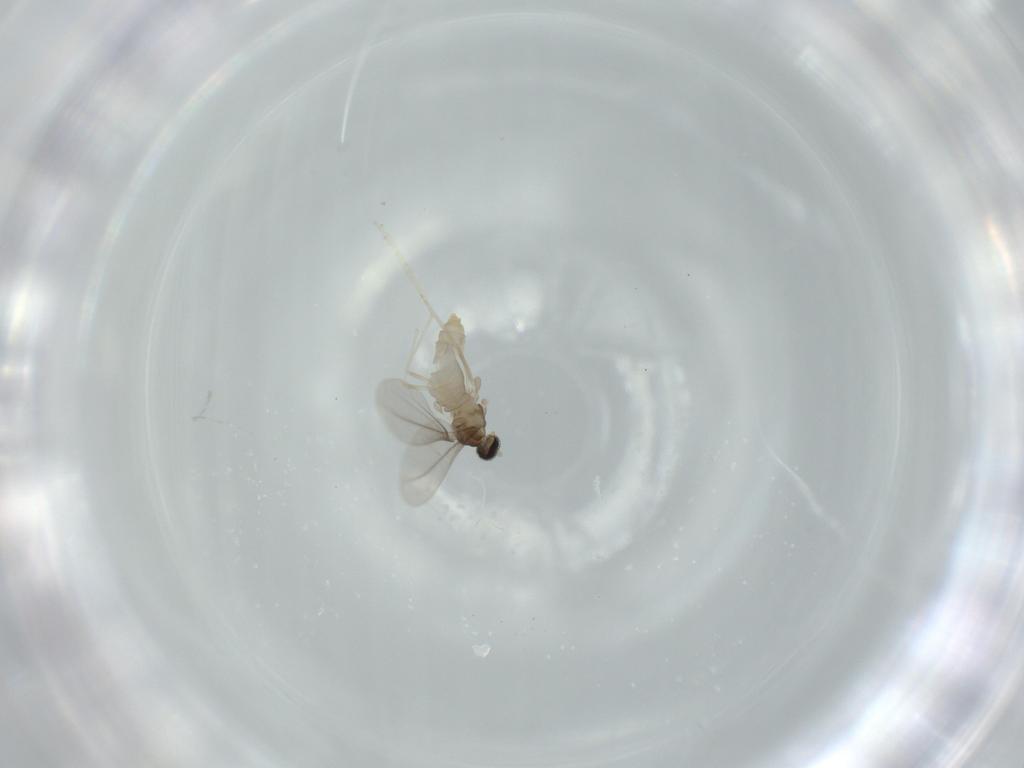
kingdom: Animalia
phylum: Arthropoda
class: Insecta
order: Diptera
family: Cecidomyiidae
